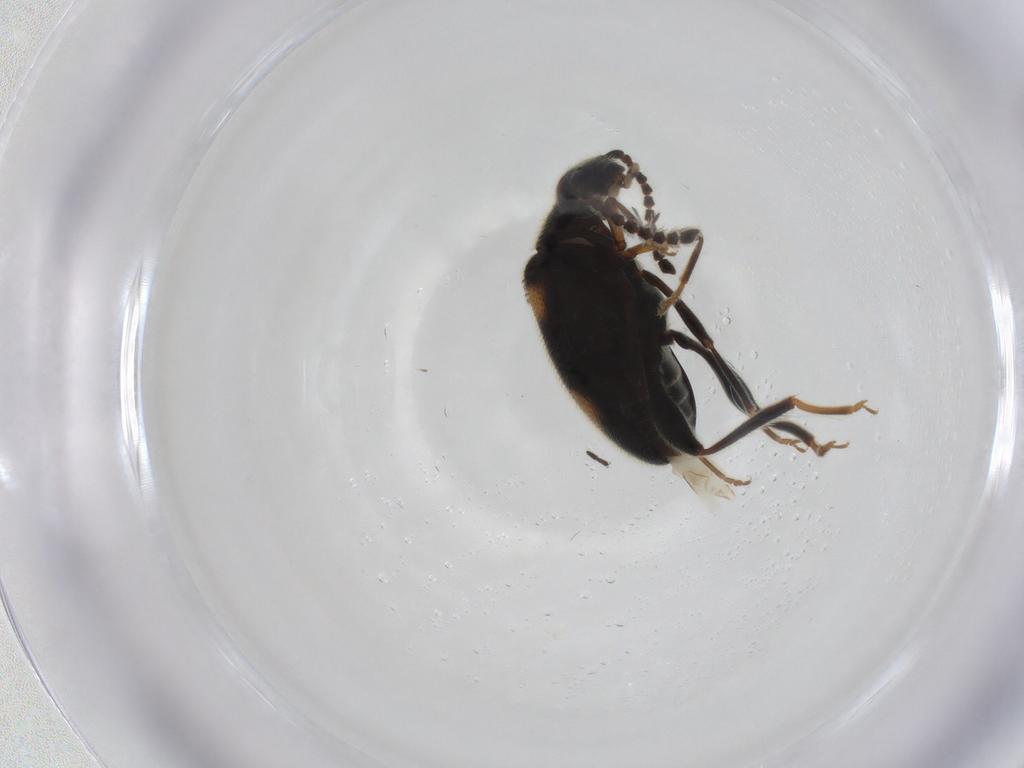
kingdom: Animalia
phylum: Arthropoda
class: Insecta
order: Coleoptera
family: Aderidae
